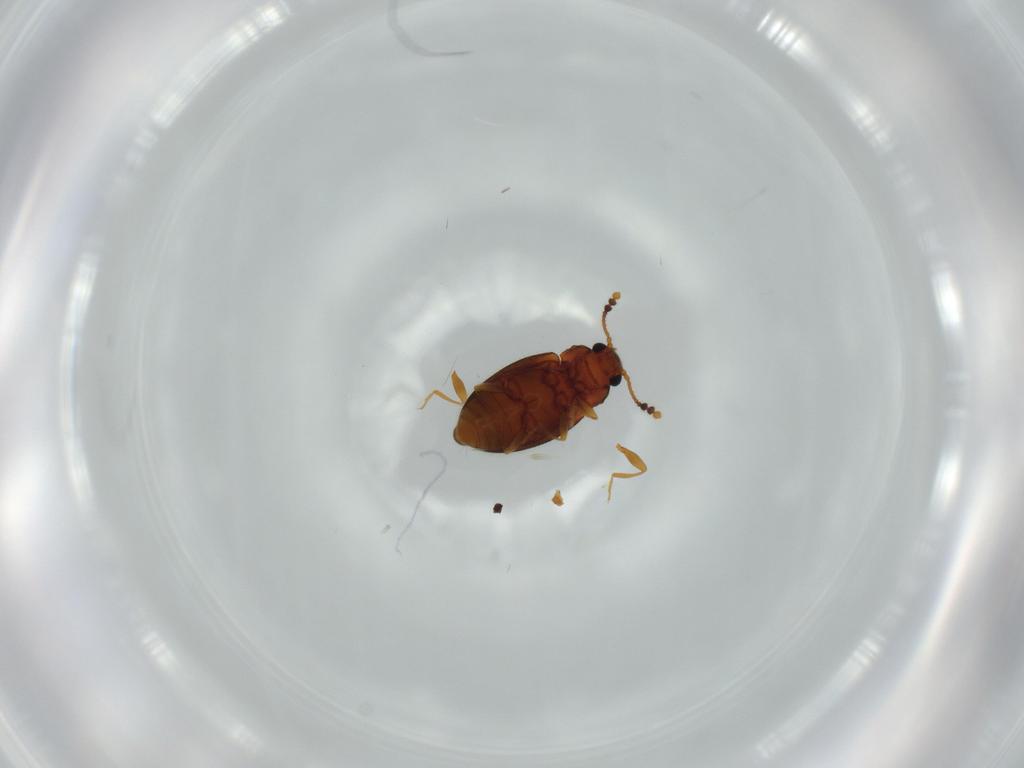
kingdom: Animalia
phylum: Arthropoda
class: Insecta
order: Coleoptera
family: Erotylidae
